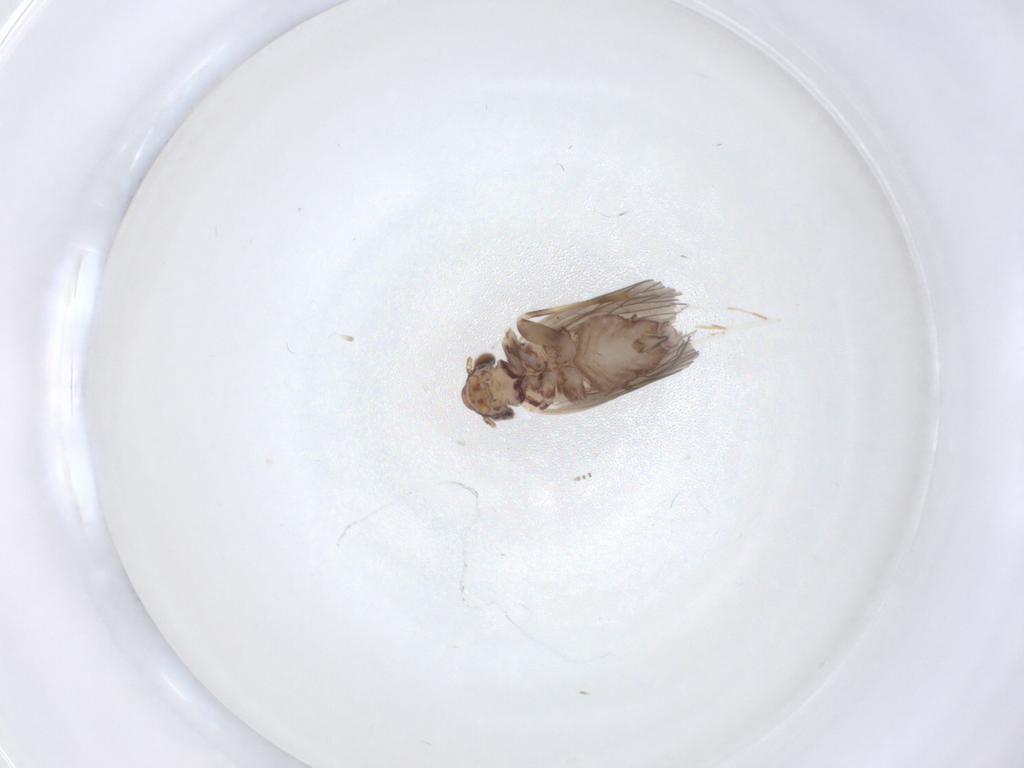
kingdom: Animalia
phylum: Arthropoda
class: Insecta
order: Psocodea
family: Lepidopsocidae
